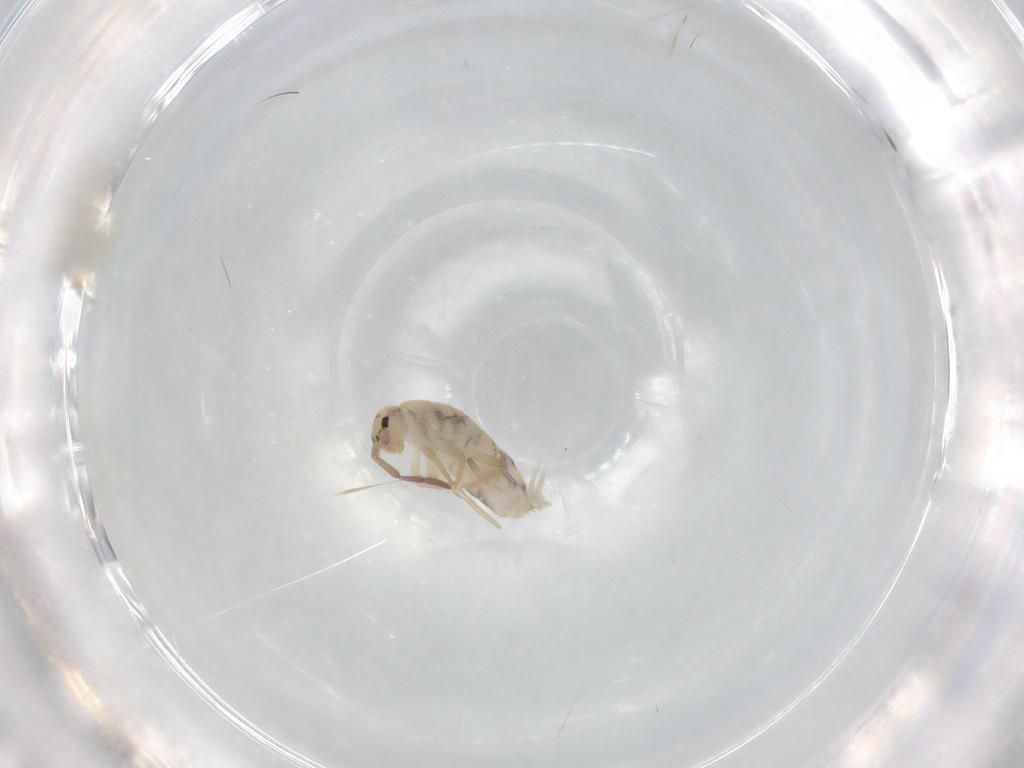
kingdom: Animalia
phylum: Arthropoda
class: Collembola
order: Entomobryomorpha
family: Entomobryidae
